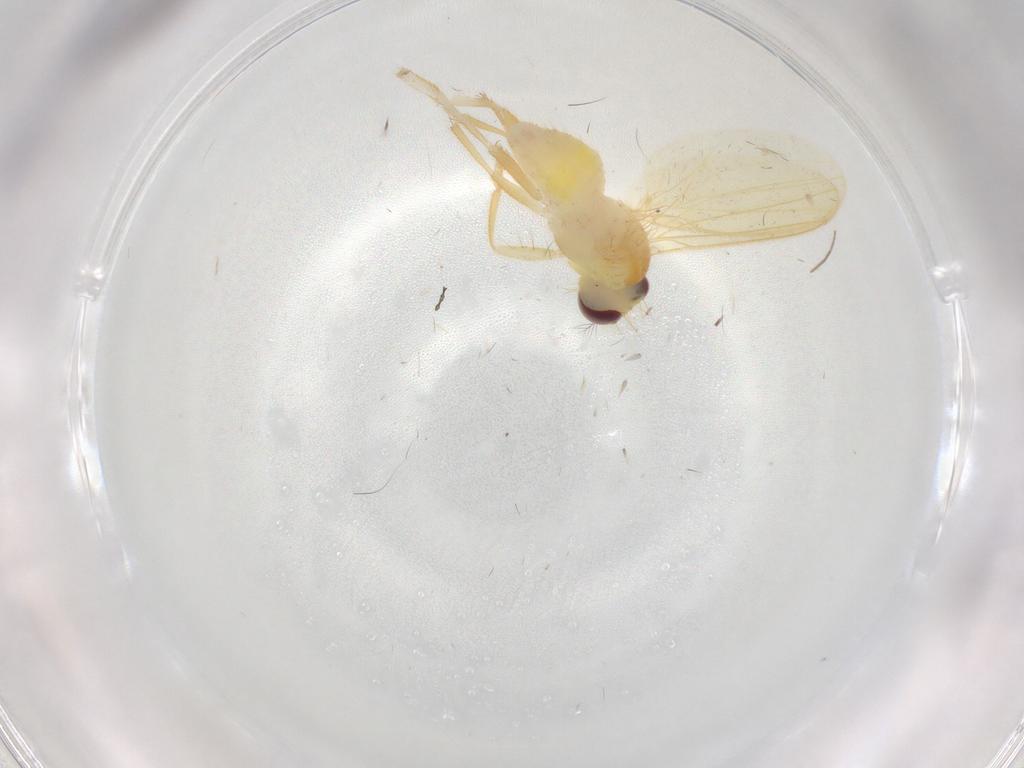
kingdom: Animalia
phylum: Arthropoda
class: Insecta
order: Diptera
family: Periscelididae
